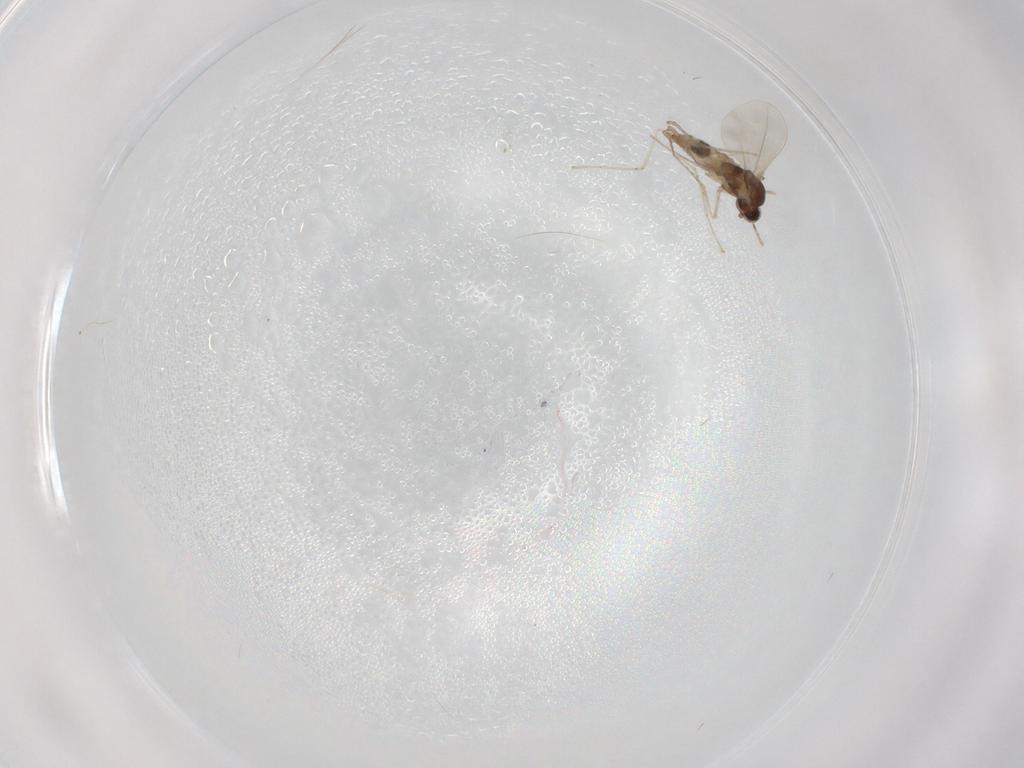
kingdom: Animalia
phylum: Arthropoda
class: Insecta
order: Diptera
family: Cecidomyiidae
